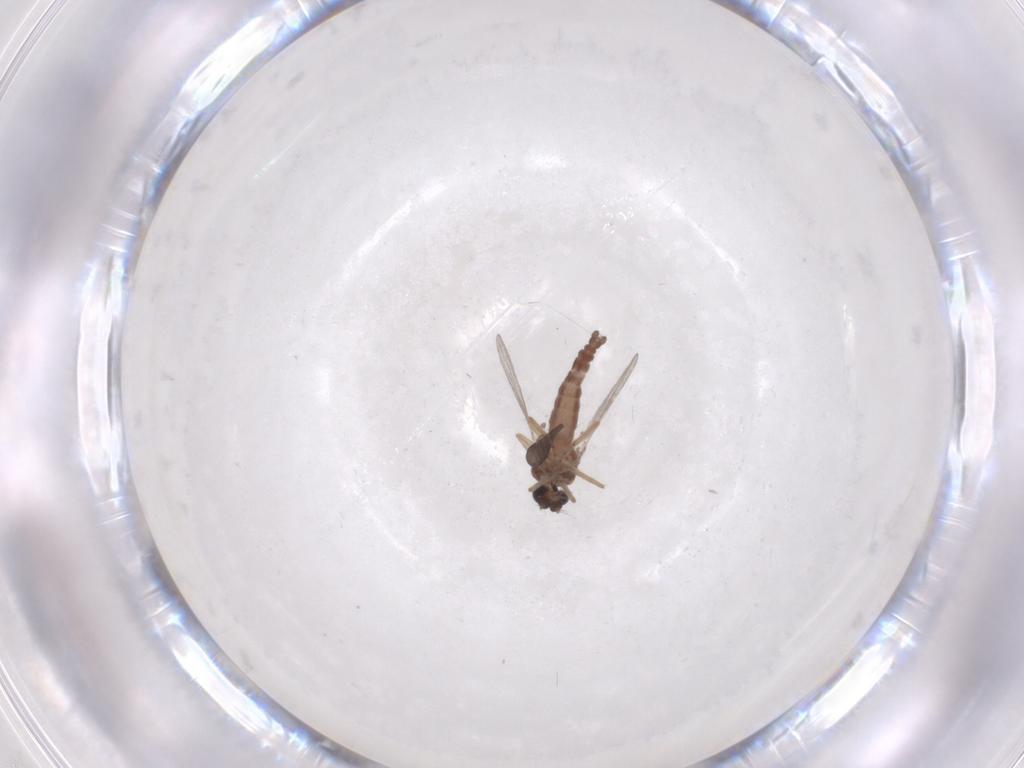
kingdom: Animalia
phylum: Arthropoda
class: Insecta
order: Diptera
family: Ceratopogonidae
